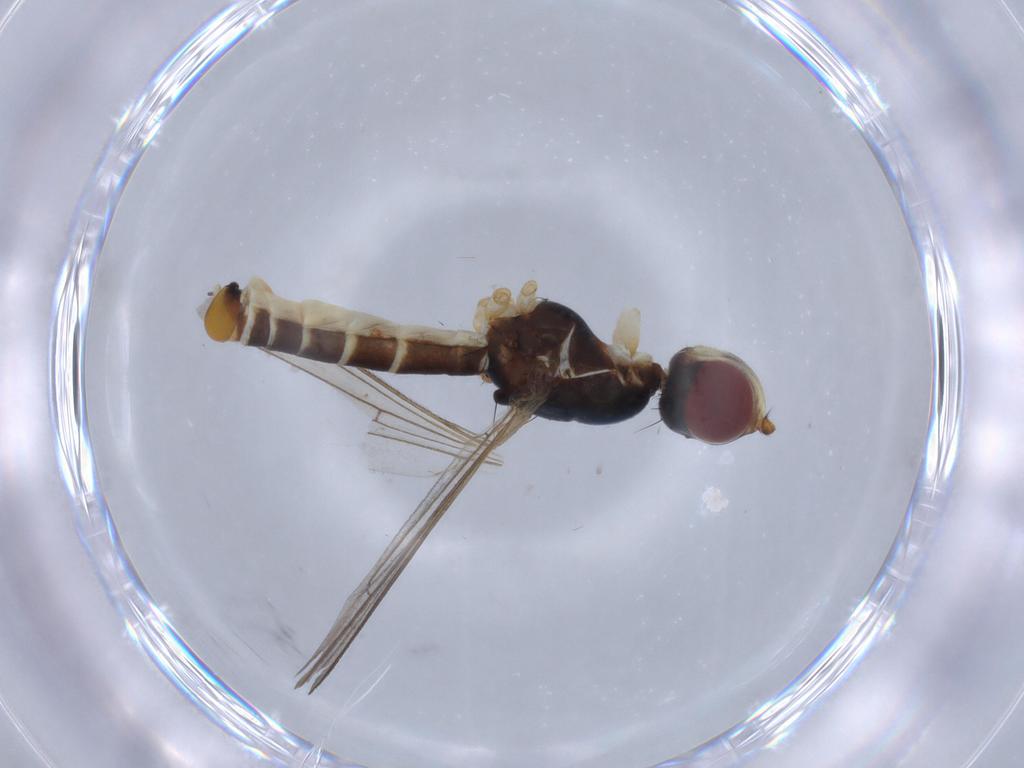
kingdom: Animalia
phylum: Arthropoda
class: Insecta
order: Diptera
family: Micropezidae
